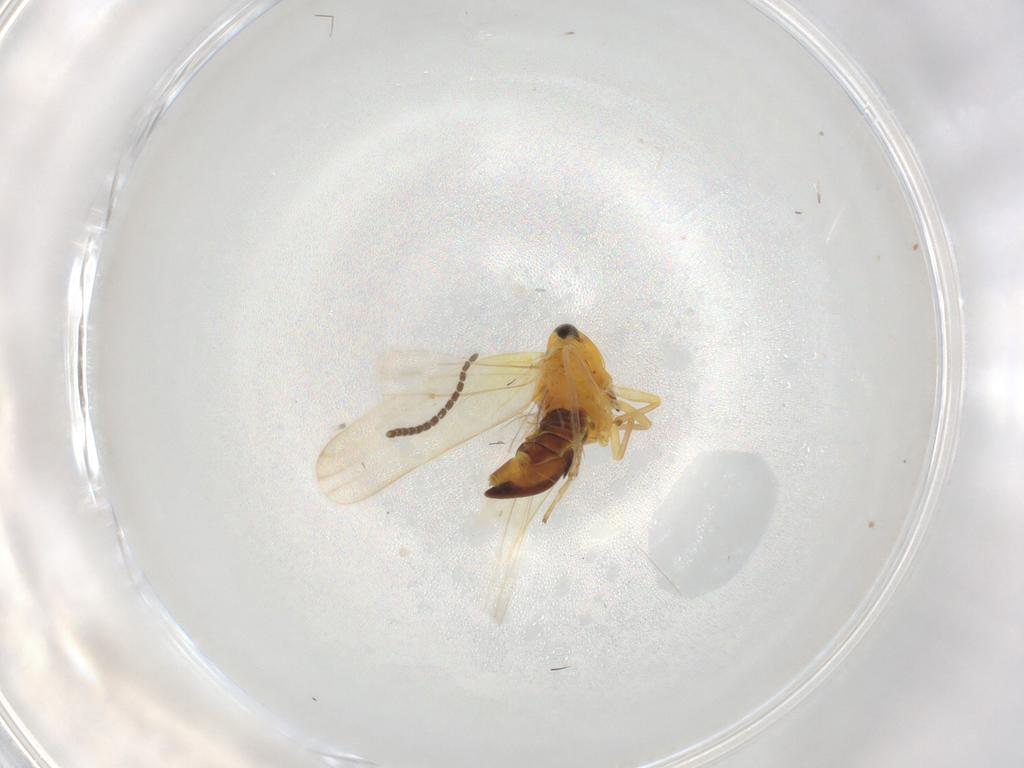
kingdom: Animalia
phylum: Arthropoda
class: Insecta
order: Hemiptera
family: Cicadellidae
